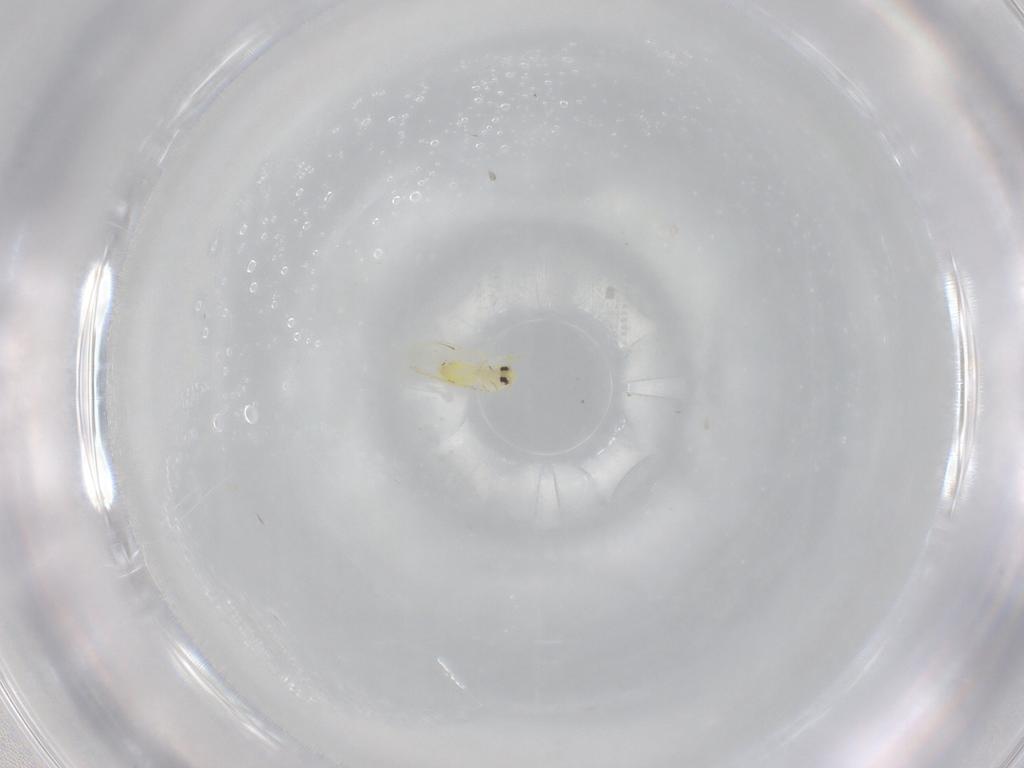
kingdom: Animalia
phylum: Arthropoda
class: Insecta
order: Hemiptera
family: Aleyrodidae
